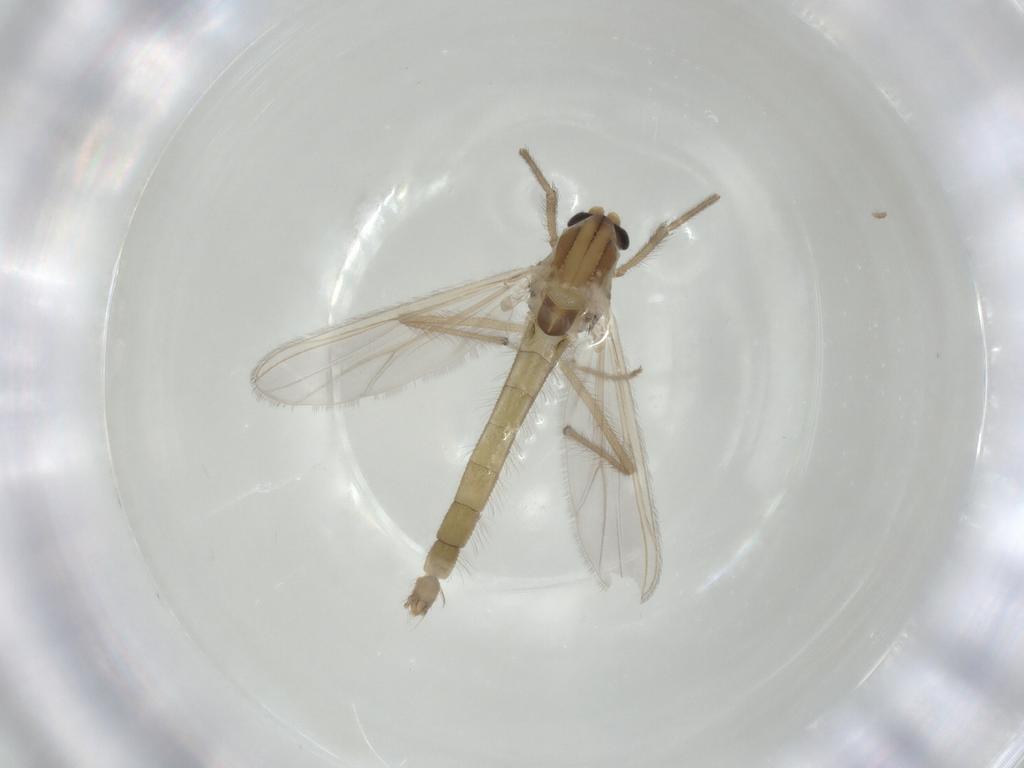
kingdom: Animalia
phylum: Arthropoda
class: Insecta
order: Diptera
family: Chironomidae
